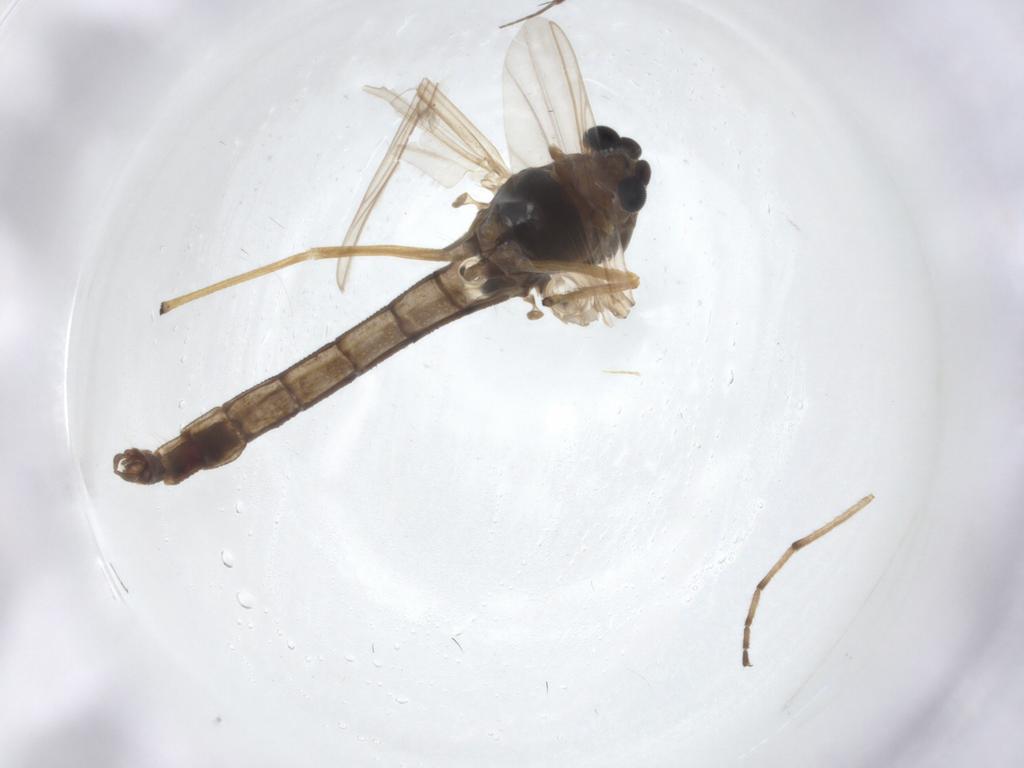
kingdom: Animalia
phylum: Arthropoda
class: Insecta
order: Diptera
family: Chironomidae
